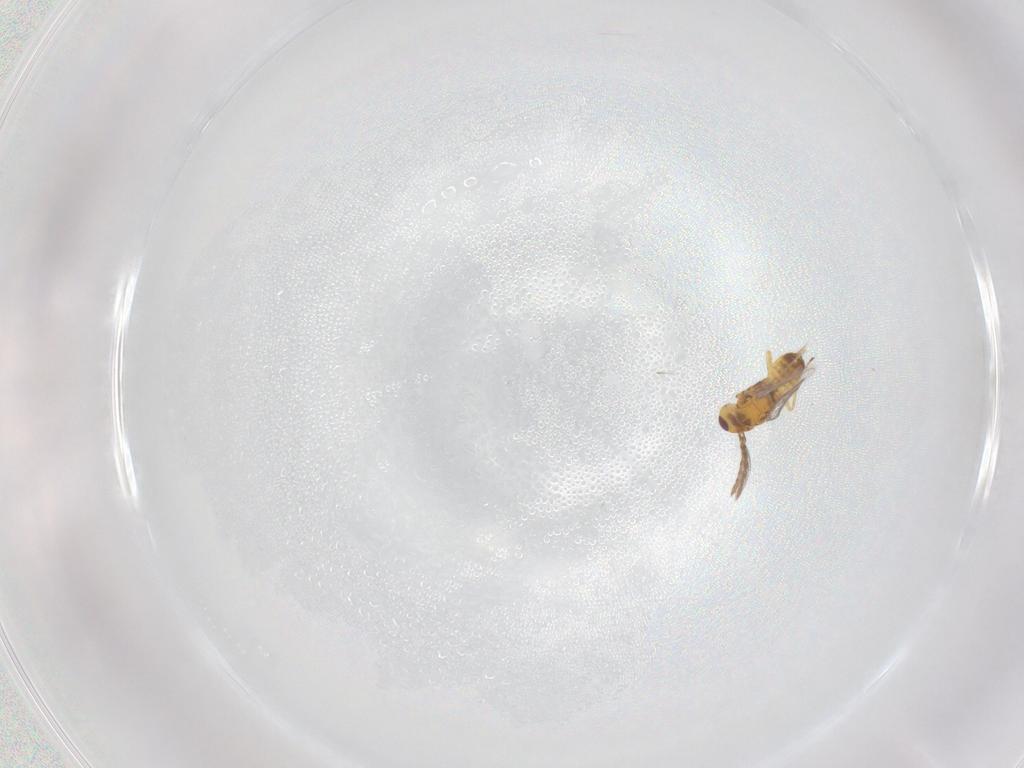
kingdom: Animalia
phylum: Arthropoda
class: Insecta
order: Hymenoptera
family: Eulophidae
